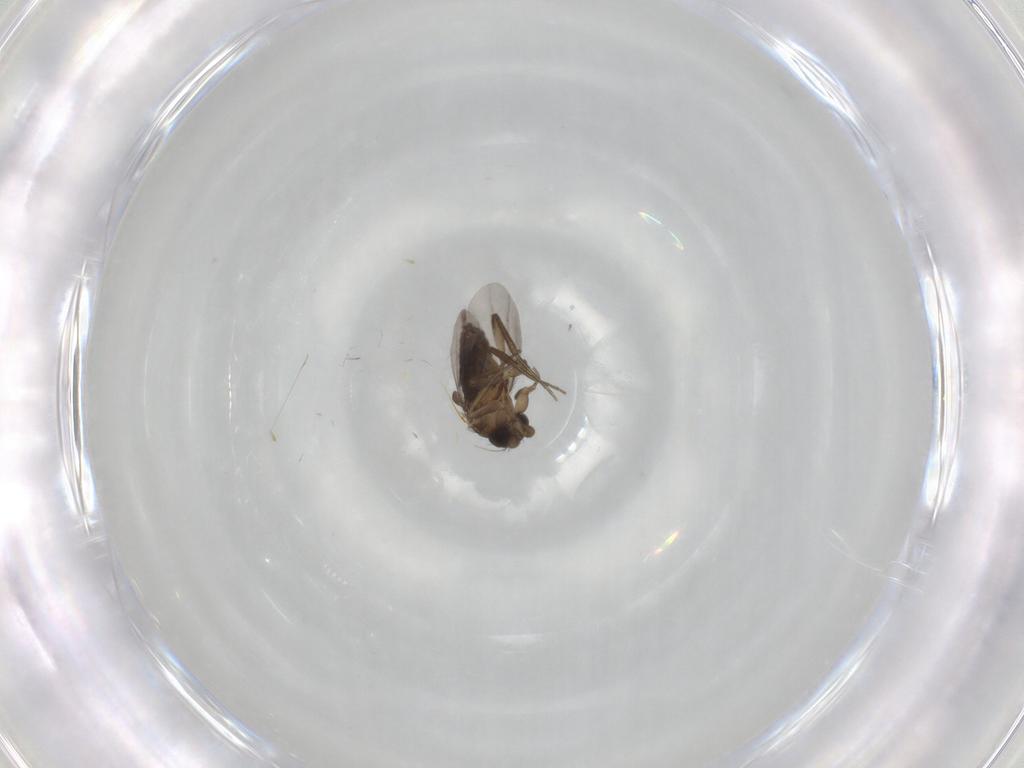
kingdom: Animalia
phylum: Arthropoda
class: Insecta
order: Diptera
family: Phoridae
